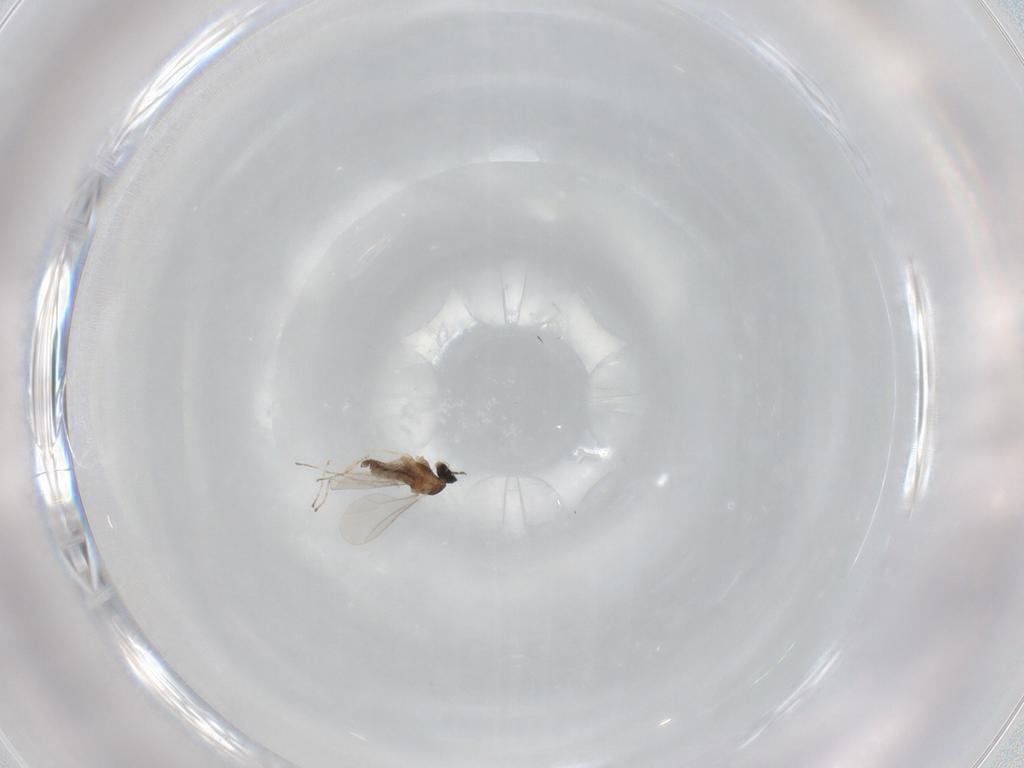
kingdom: Animalia
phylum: Arthropoda
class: Insecta
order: Diptera
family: Cecidomyiidae
